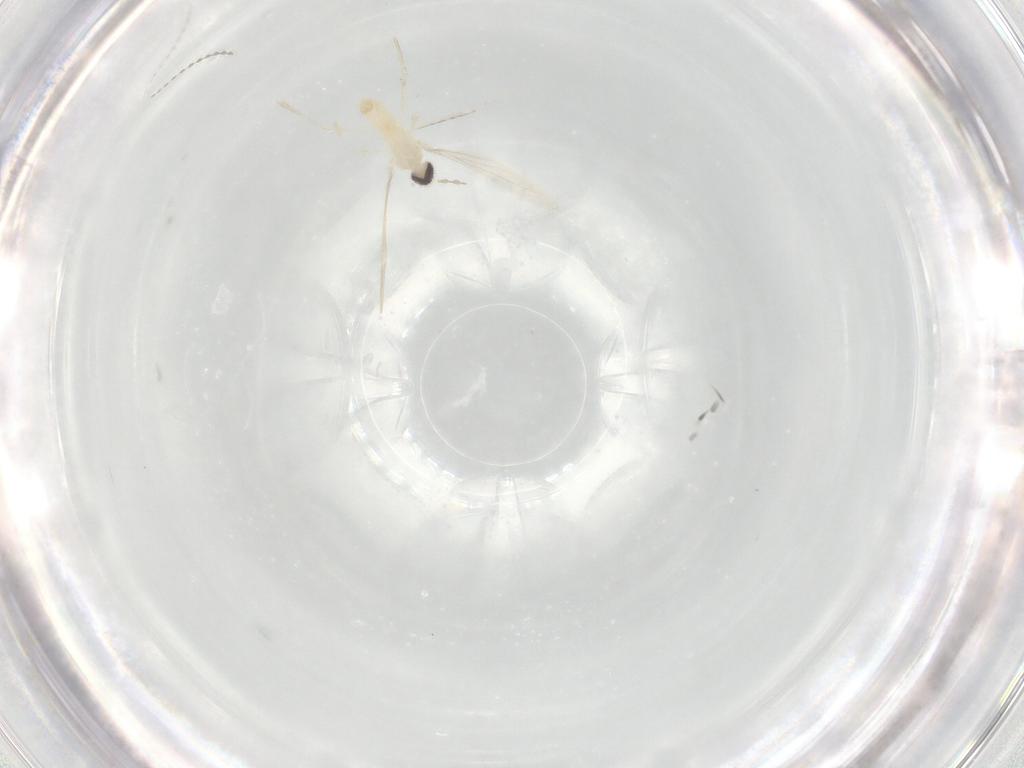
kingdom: Animalia
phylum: Arthropoda
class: Insecta
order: Diptera
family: Cecidomyiidae
